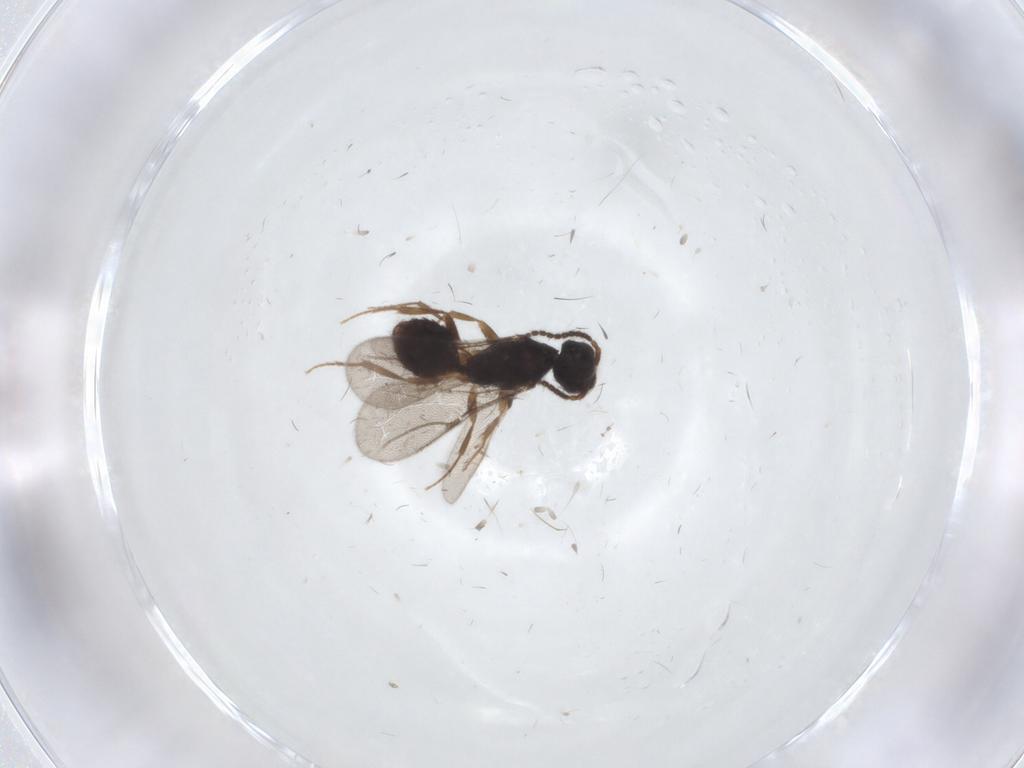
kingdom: Animalia
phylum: Arthropoda
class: Insecta
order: Hymenoptera
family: Bethylidae
